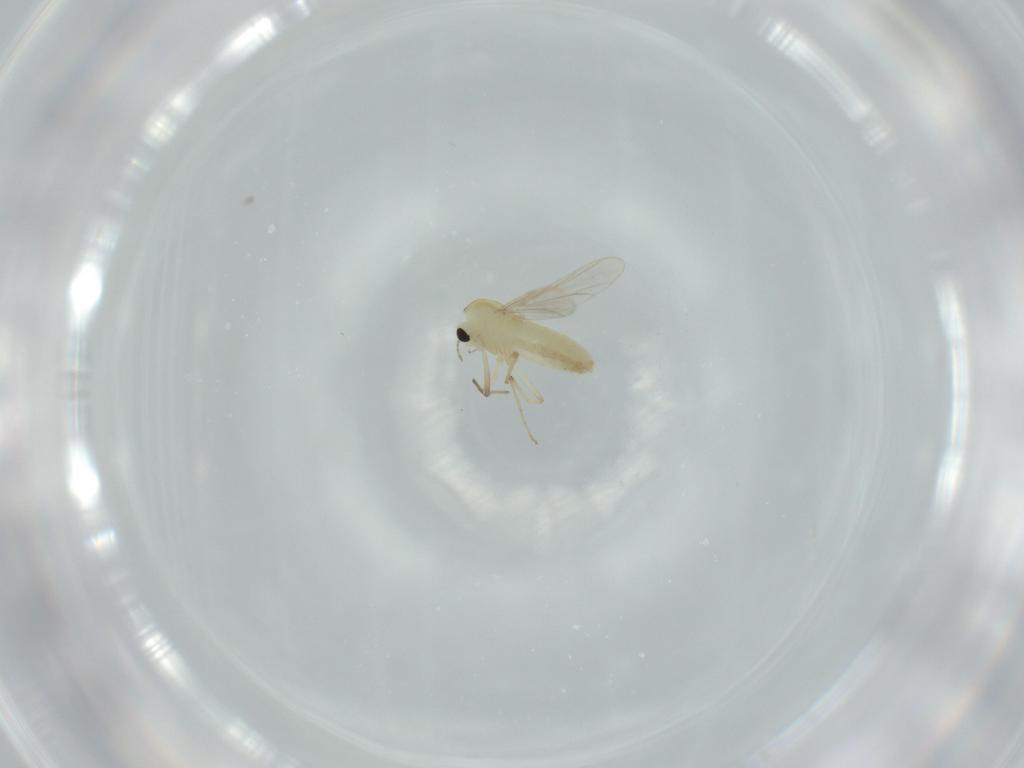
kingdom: Animalia
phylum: Arthropoda
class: Insecta
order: Diptera
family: Chironomidae
